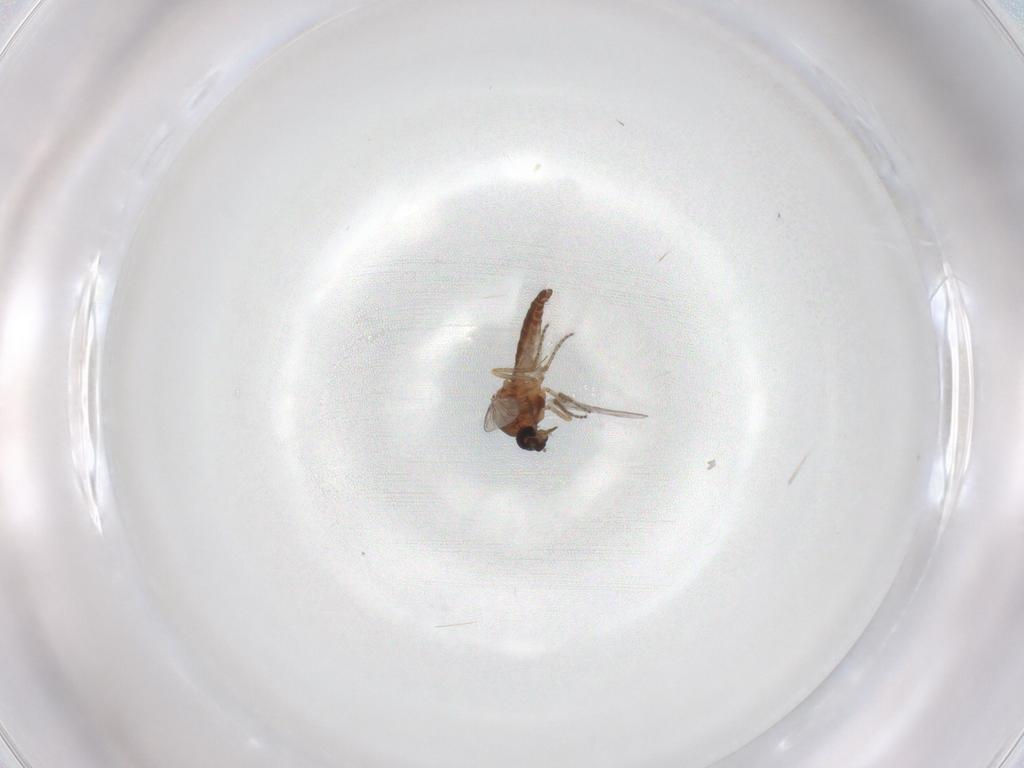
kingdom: Animalia
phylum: Arthropoda
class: Insecta
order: Diptera
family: Ceratopogonidae
